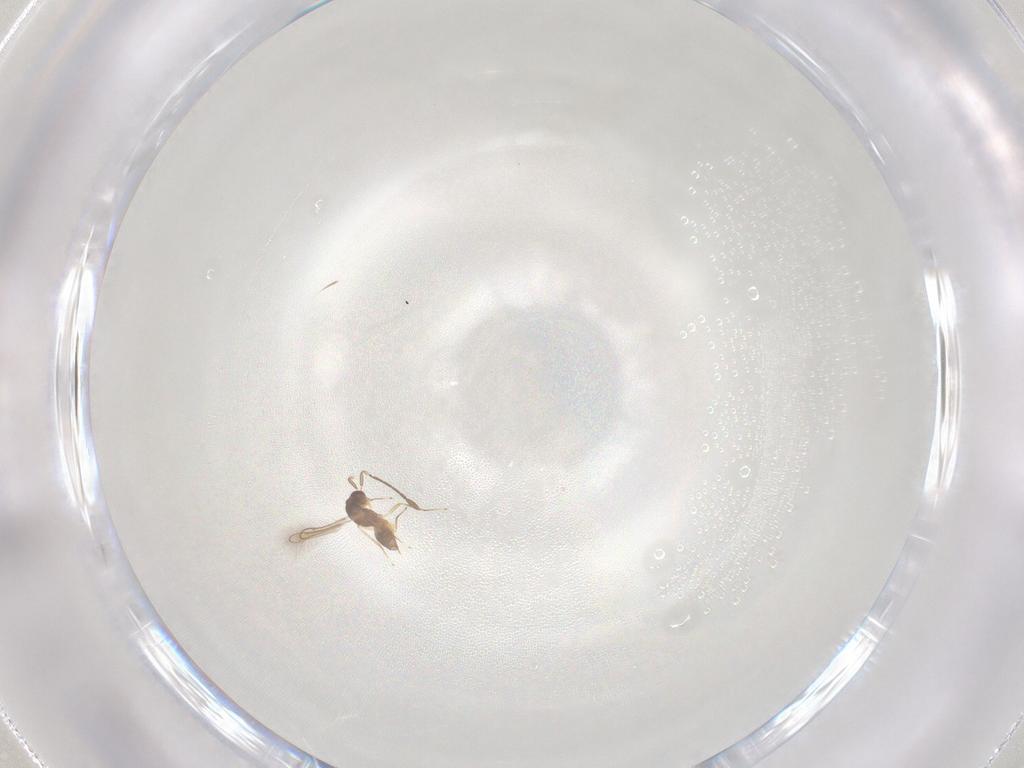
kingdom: Animalia
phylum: Arthropoda
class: Insecta
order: Hymenoptera
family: Mymaridae
